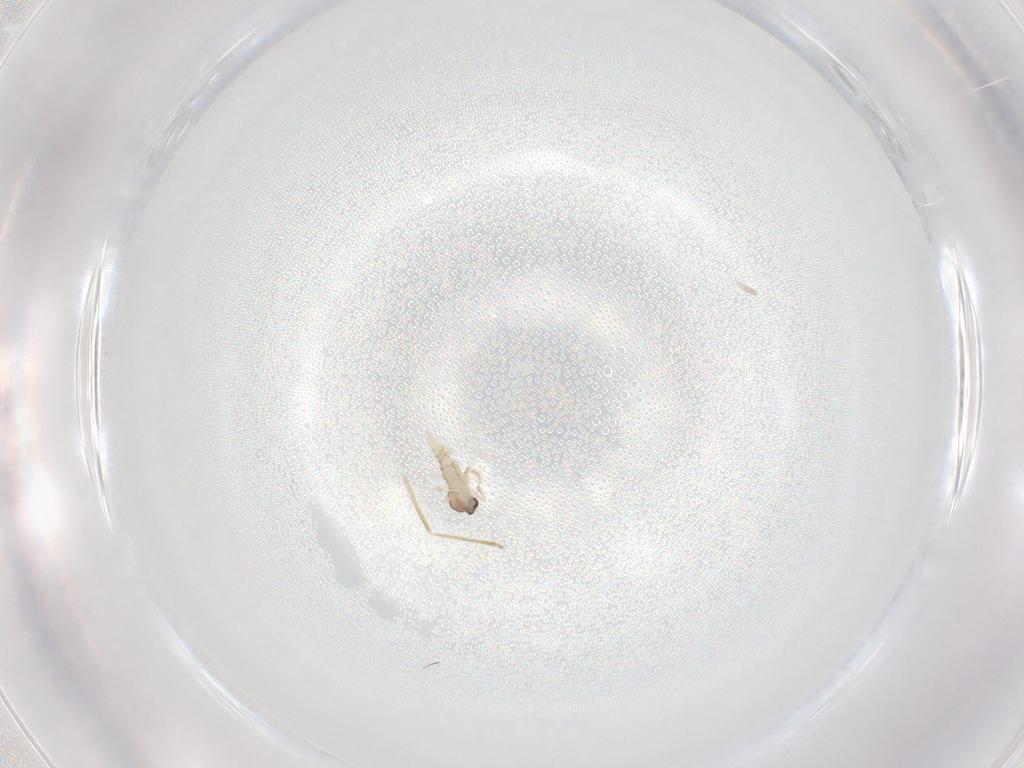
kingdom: Animalia
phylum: Arthropoda
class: Insecta
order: Diptera
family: Cecidomyiidae
